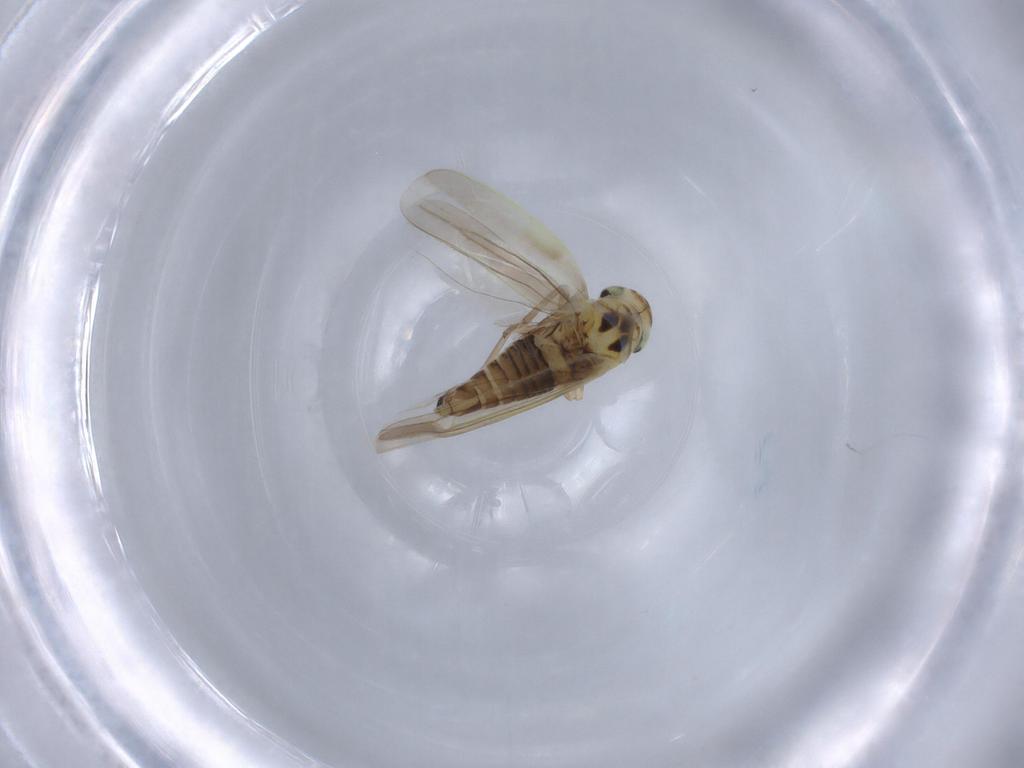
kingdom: Animalia
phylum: Arthropoda
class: Insecta
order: Hemiptera
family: Cicadellidae
